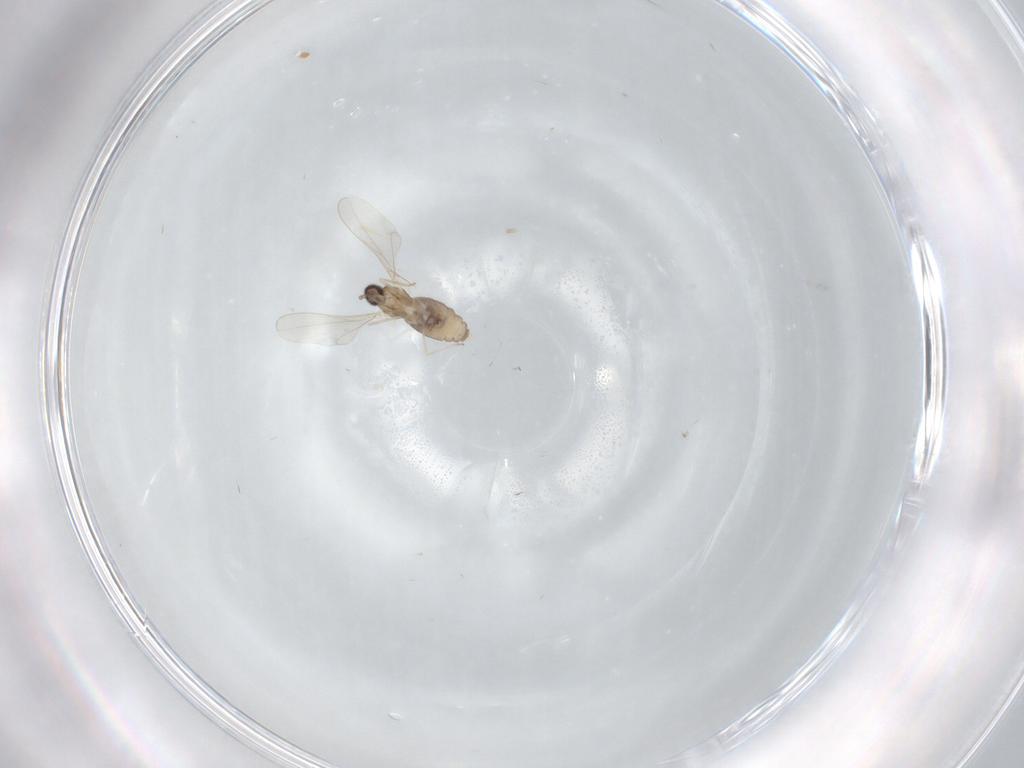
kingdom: Animalia
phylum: Arthropoda
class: Insecta
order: Diptera
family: Cecidomyiidae
